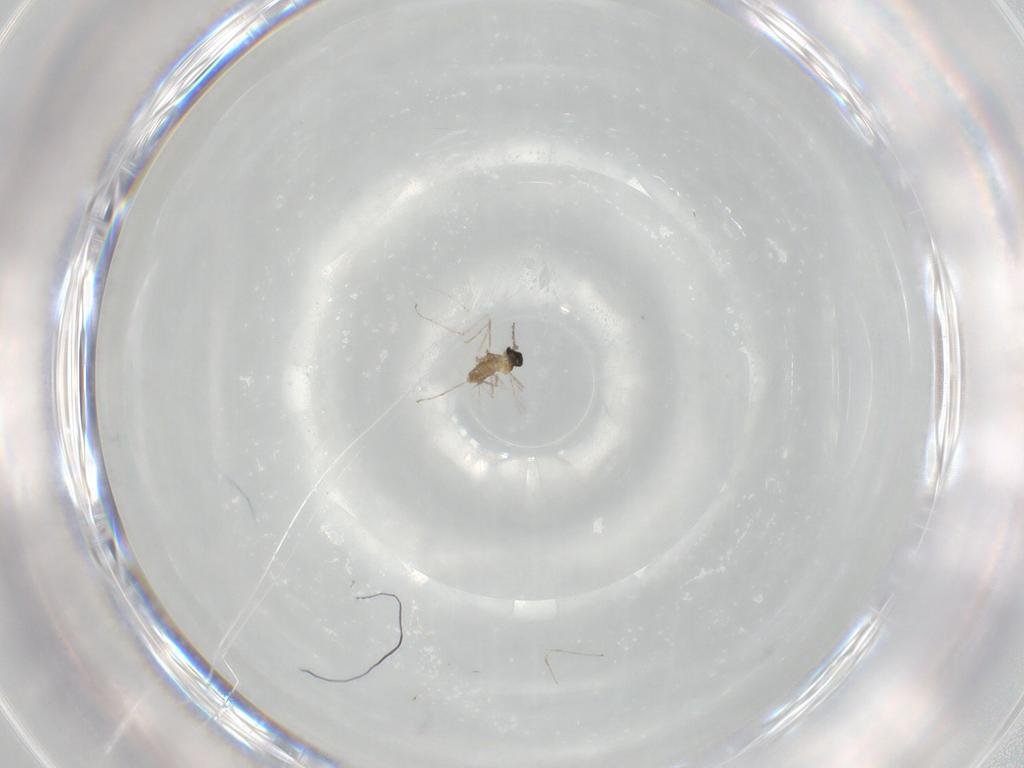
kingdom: Animalia
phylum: Arthropoda
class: Insecta
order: Diptera
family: Cecidomyiidae
